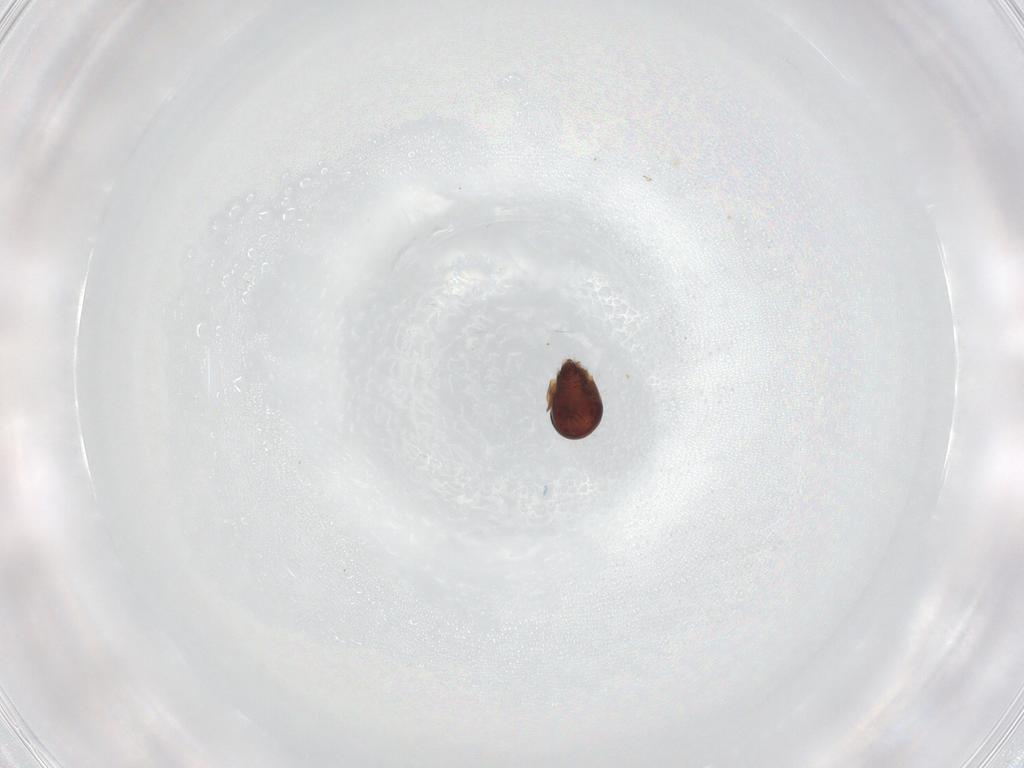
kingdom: Animalia
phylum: Arthropoda
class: Arachnida
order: Sarcoptiformes
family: Ceratozetidae
